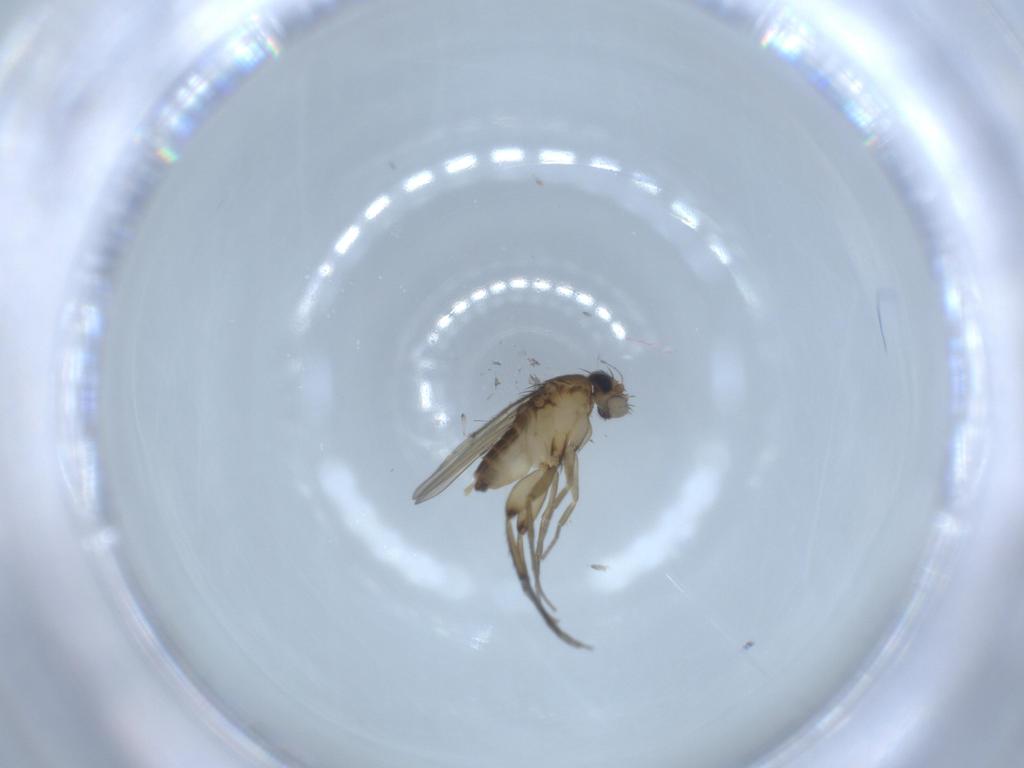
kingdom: Animalia
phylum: Arthropoda
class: Insecta
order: Diptera
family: Phoridae
